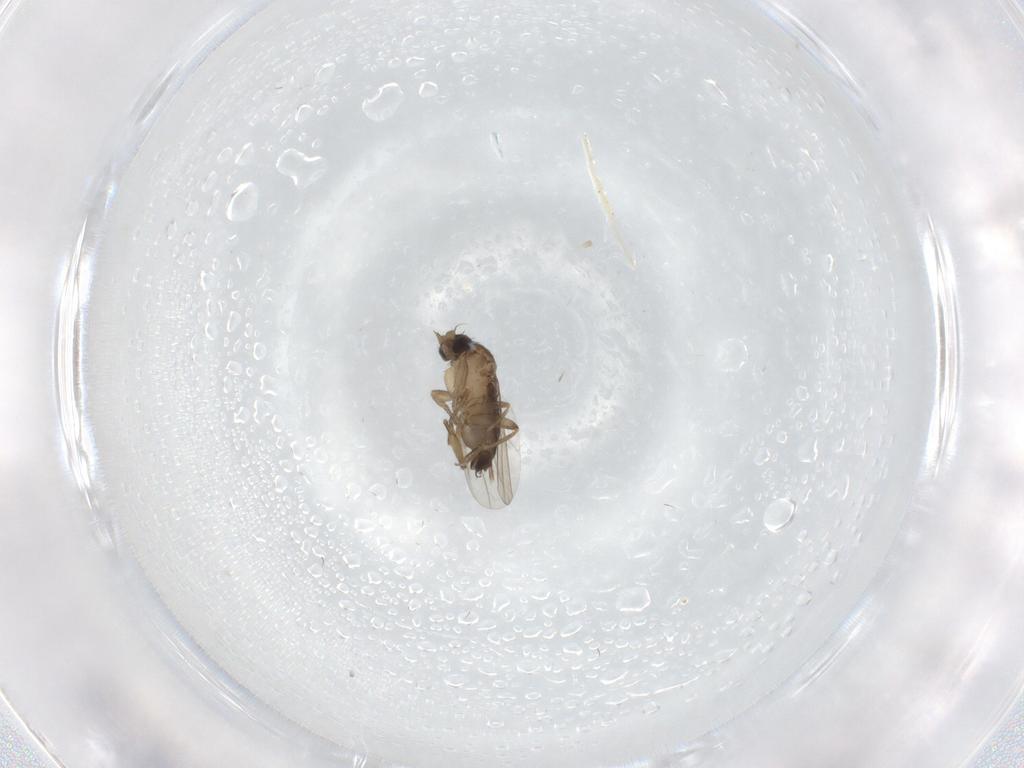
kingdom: Animalia
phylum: Arthropoda
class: Insecta
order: Diptera
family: Phoridae
